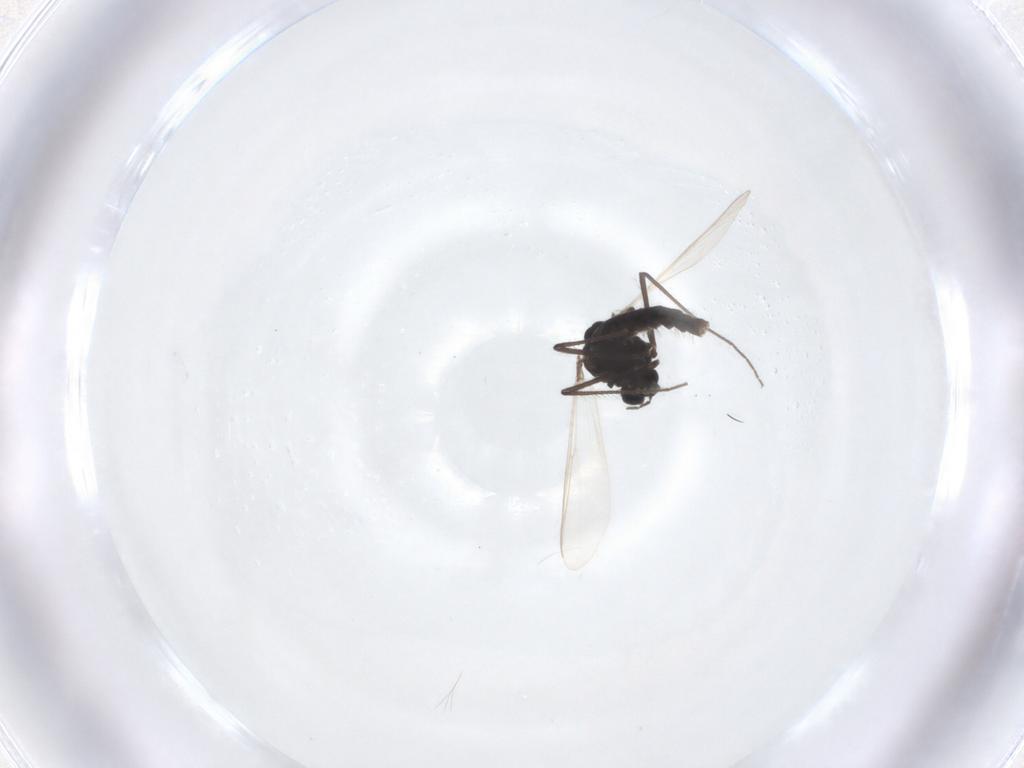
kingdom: Animalia
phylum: Arthropoda
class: Insecta
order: Diptera
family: Chironomidae
